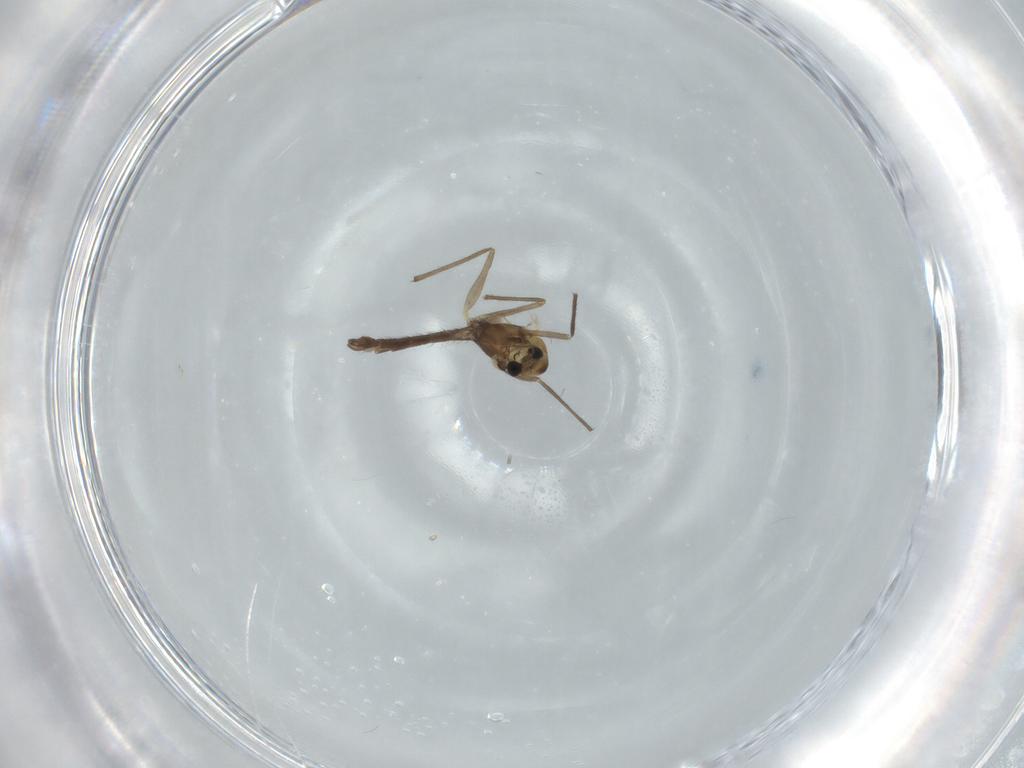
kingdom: Animalia
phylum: Arthropoda
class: Insecta
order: Diptera
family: Chironomidae
